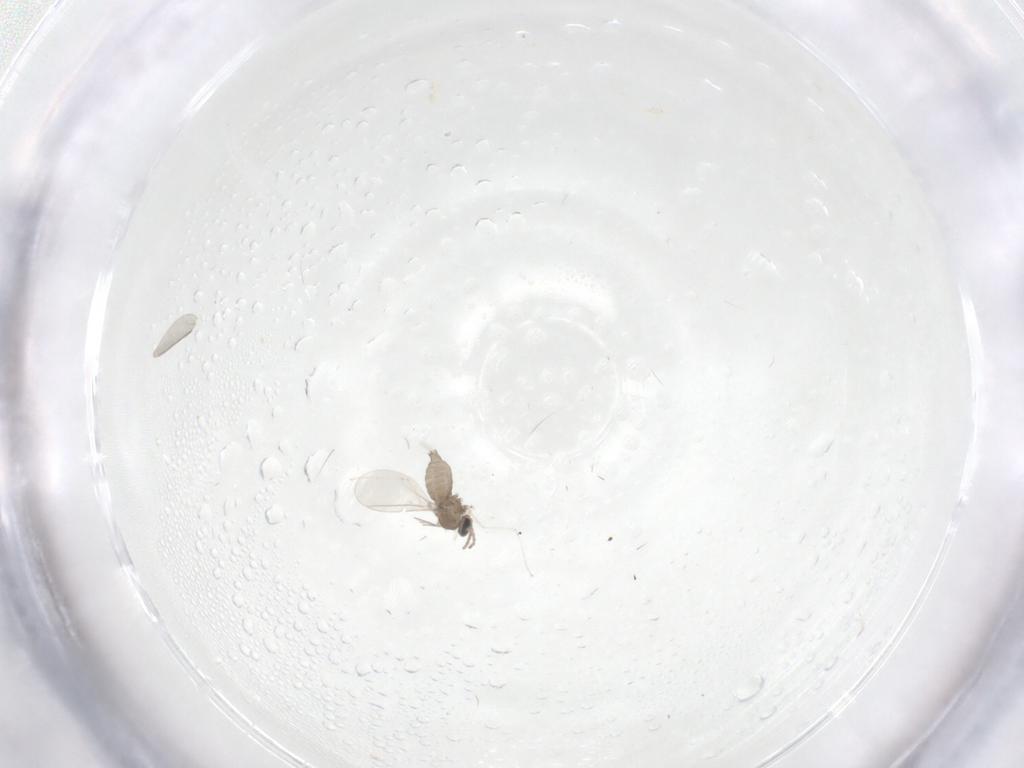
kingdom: Animalia
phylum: Arthropoda
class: Insecta
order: Diptera
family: Cecidomyiidae
